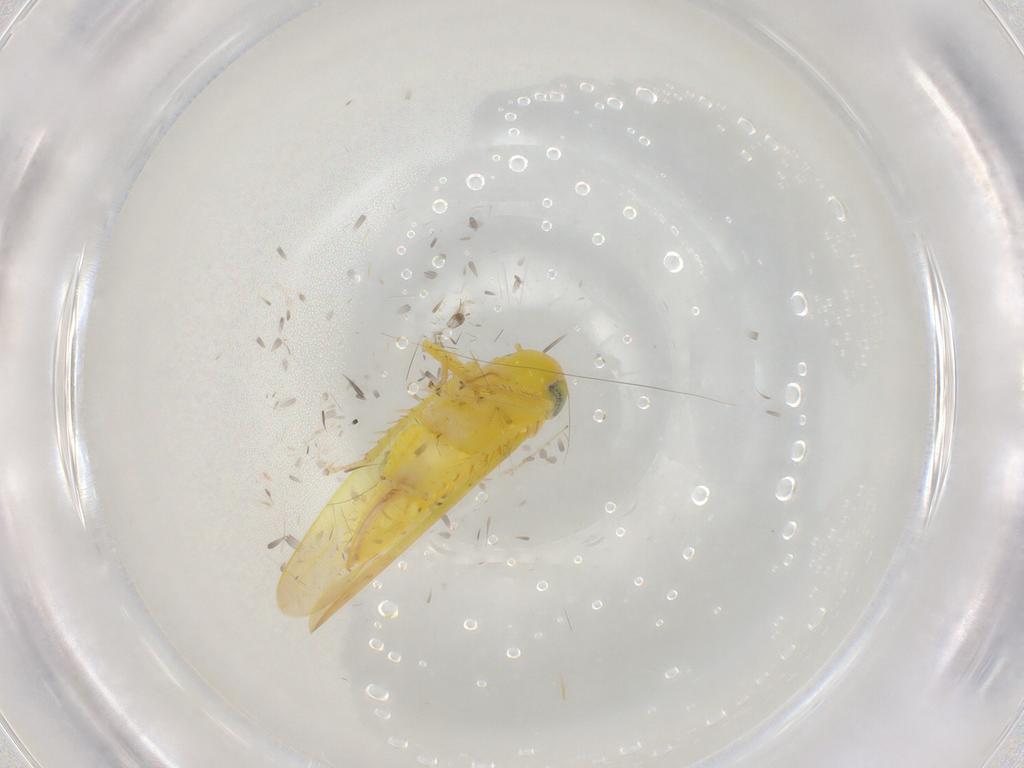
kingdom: Animalia
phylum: Arthropoda
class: Insecta
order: Hemiptera
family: Cicadellidae
